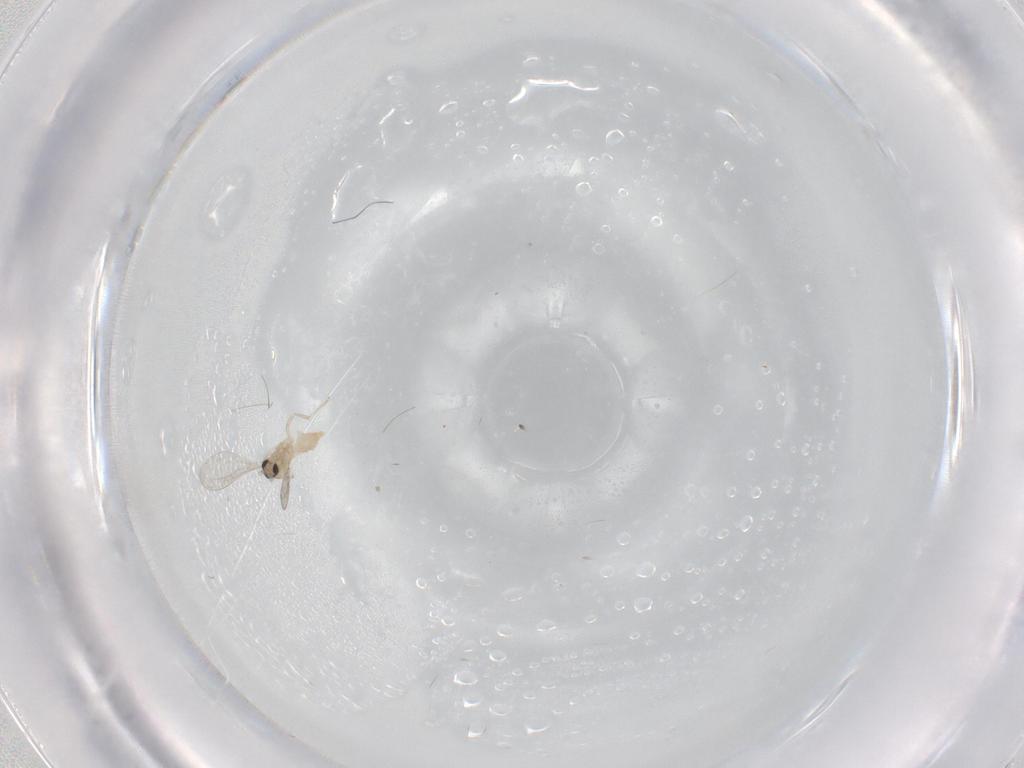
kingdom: Animalia
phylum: Arthropoda
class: Insecta
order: Diptera
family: Cecidomyiidae
